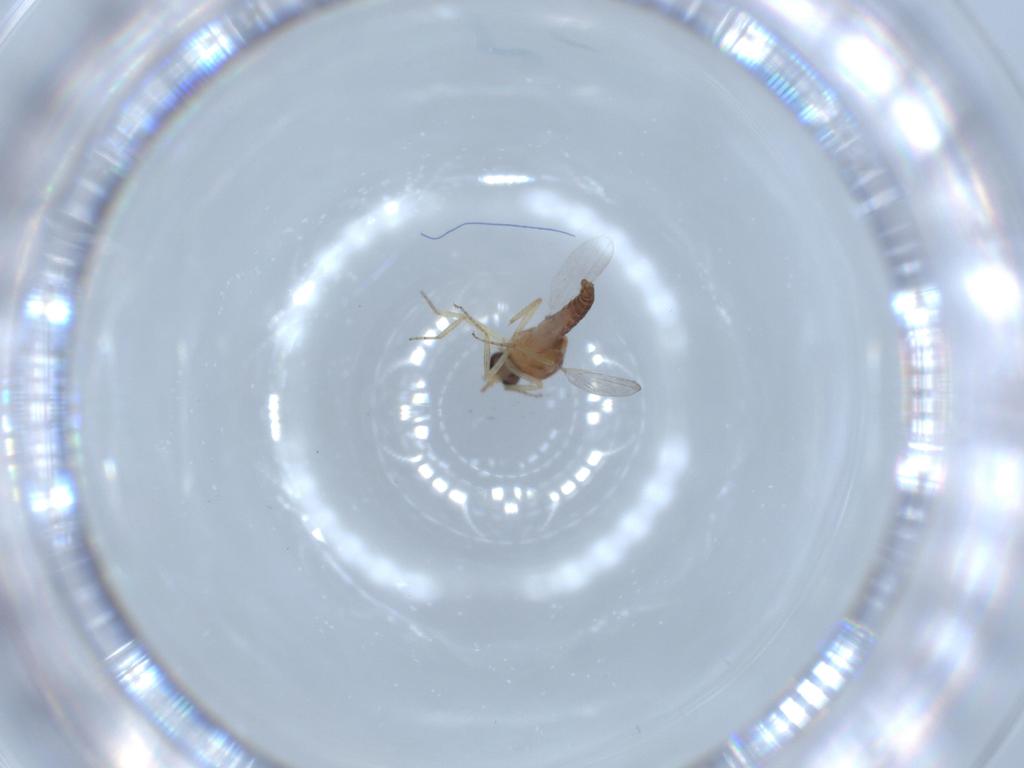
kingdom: Animalia
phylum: Arthropoda
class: Insecta
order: Diptera
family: Ceratopogonidae
